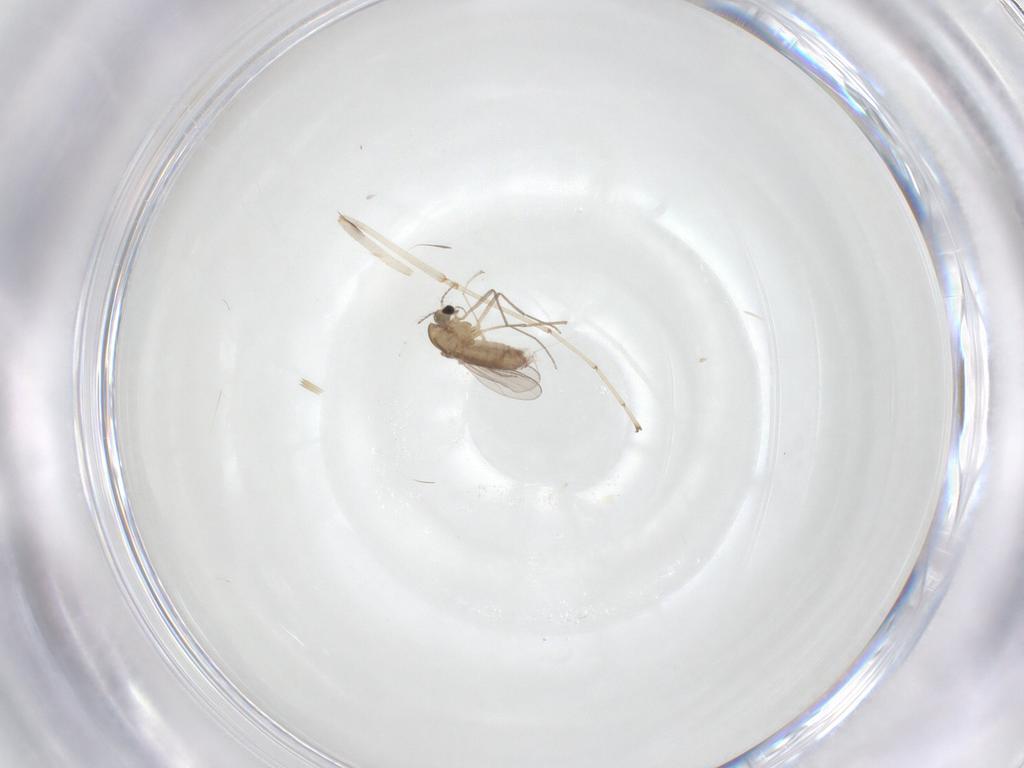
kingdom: Animalia
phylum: Arthropoda
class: Insecta
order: Diptera
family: Chironomidae
